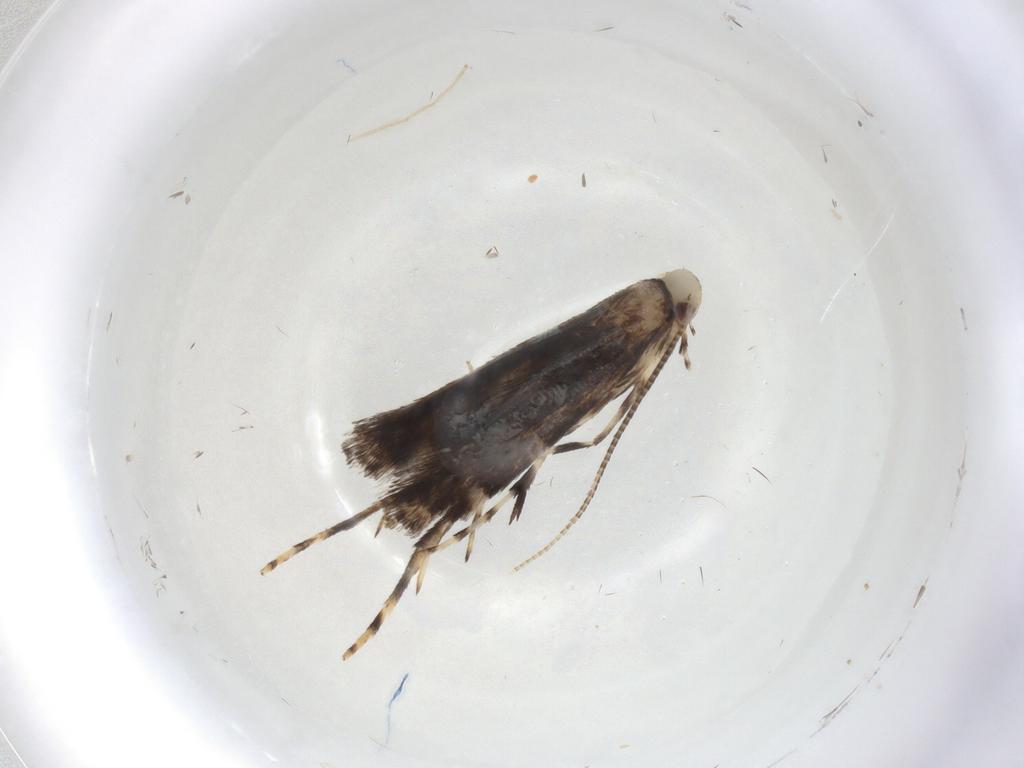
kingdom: Animalia
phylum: Arthropoda
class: Insecta
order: Lepidoptera
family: Gracillariidae
